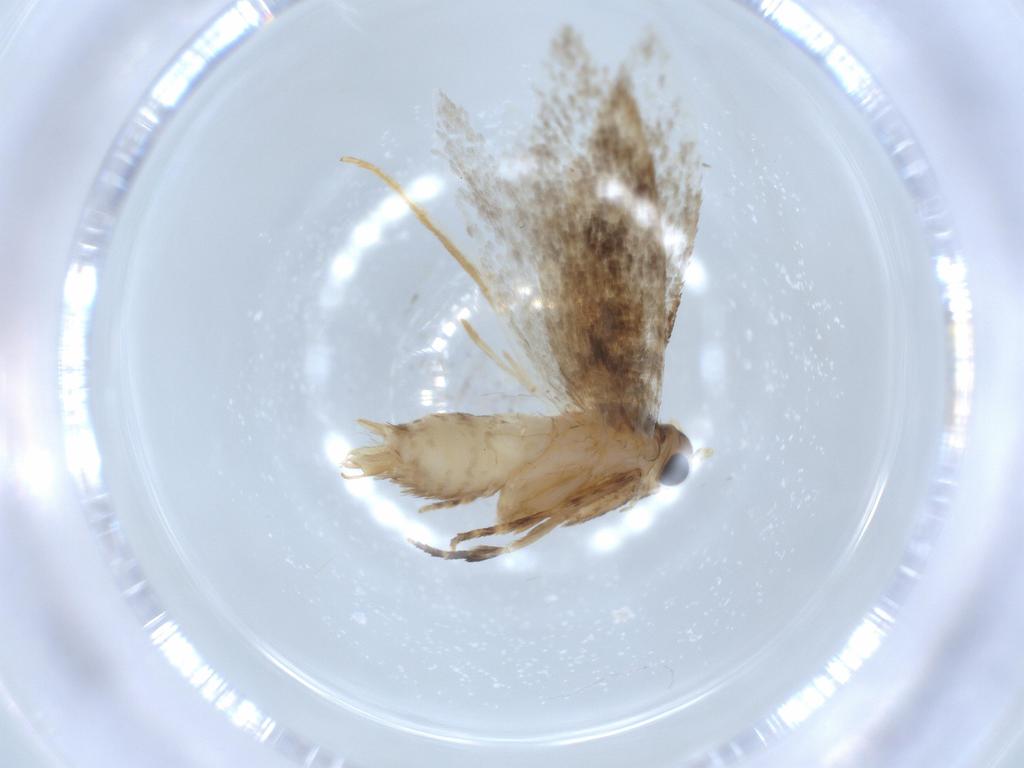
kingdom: Animalia
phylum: Arthropoda
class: Insecta
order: Lepidoptera
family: Tineidae
